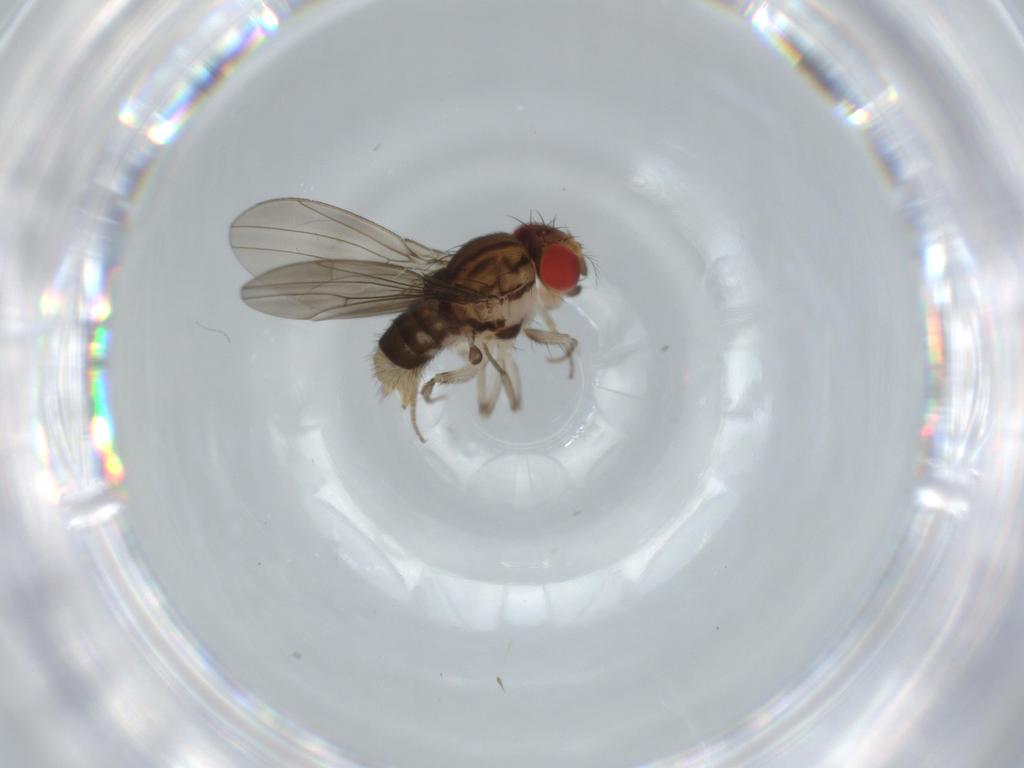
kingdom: Animalia
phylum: Arthropoda
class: Insecta
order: Diptera
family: Drosophilidae
